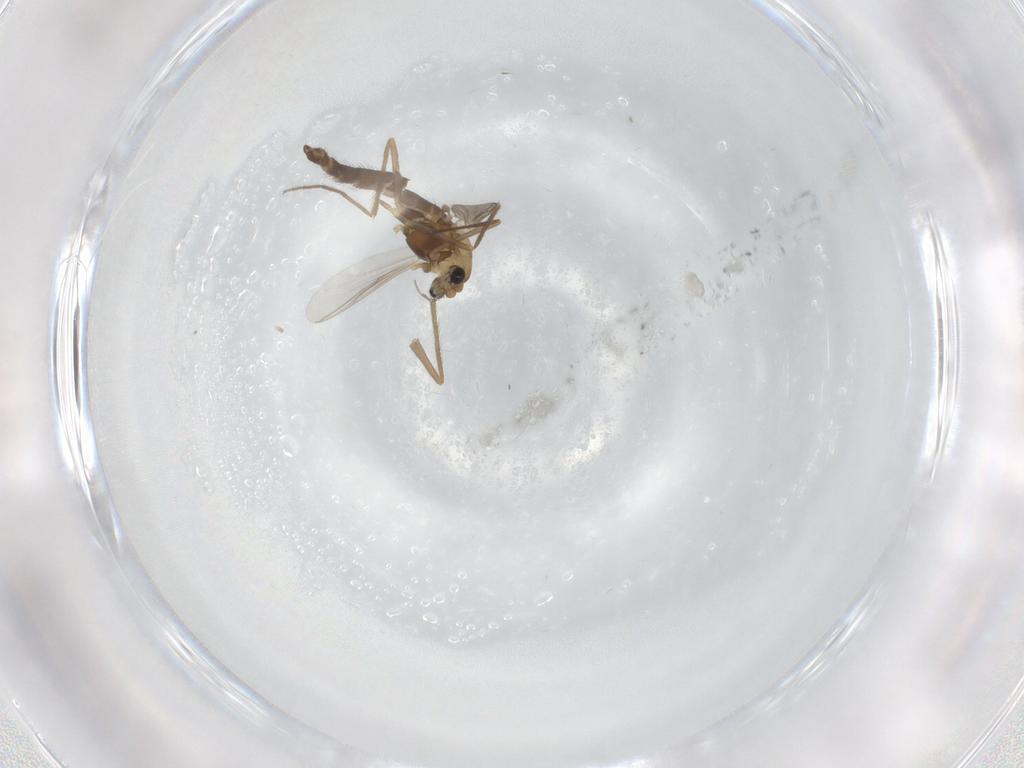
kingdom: Animalia
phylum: Arthropoda
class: Insecta
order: Diptera
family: Chironomidae
